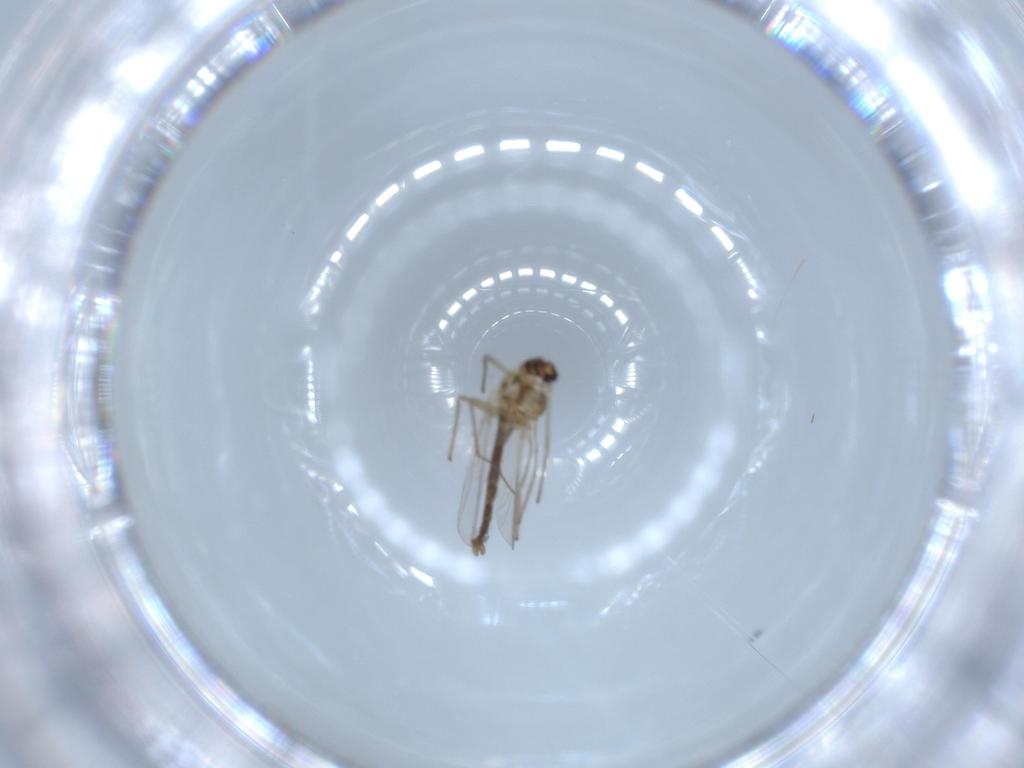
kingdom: Animalia
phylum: Arthropoda
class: Insecta
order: Diptera
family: Chironomidae
